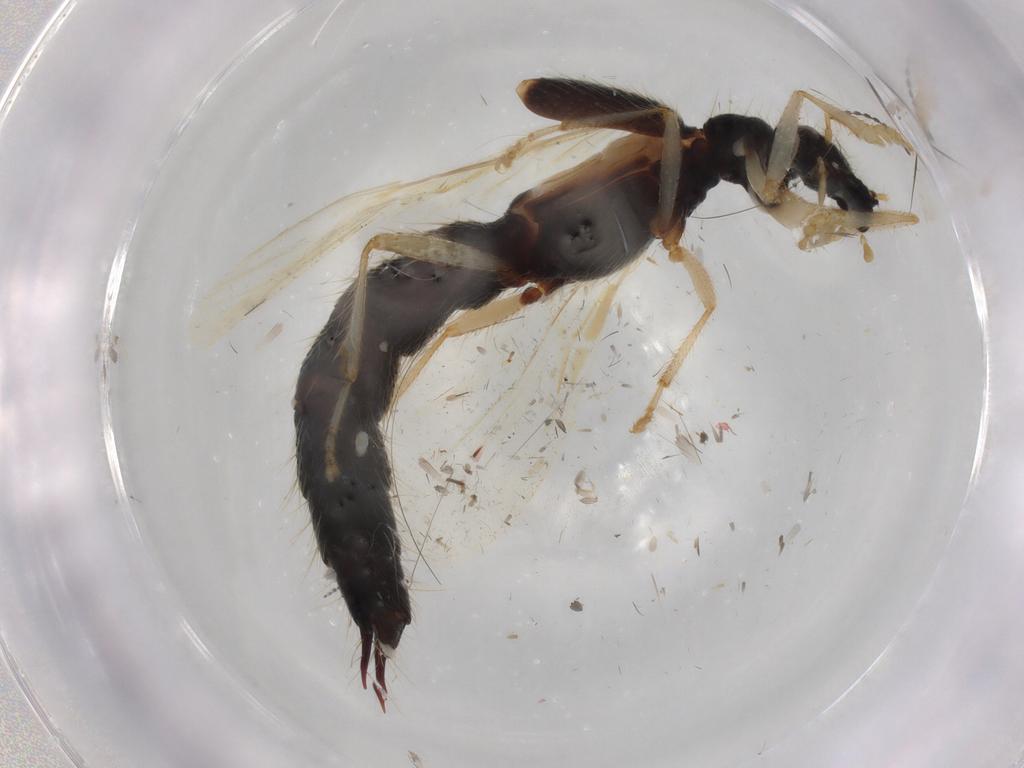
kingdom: Animalia
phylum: Arthropoda
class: Insecta
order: Coleoptera
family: Staphylinidae
